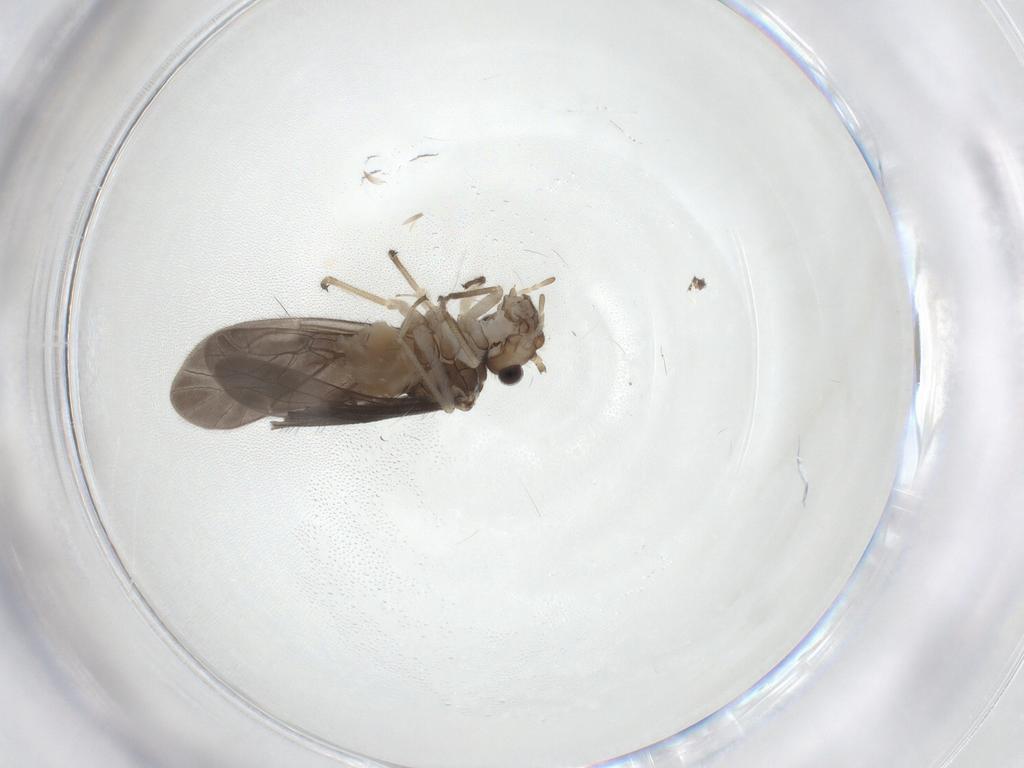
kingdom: Animalia
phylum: Arthropoda
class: Insecta
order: Psocodea
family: Caeciliusidae
